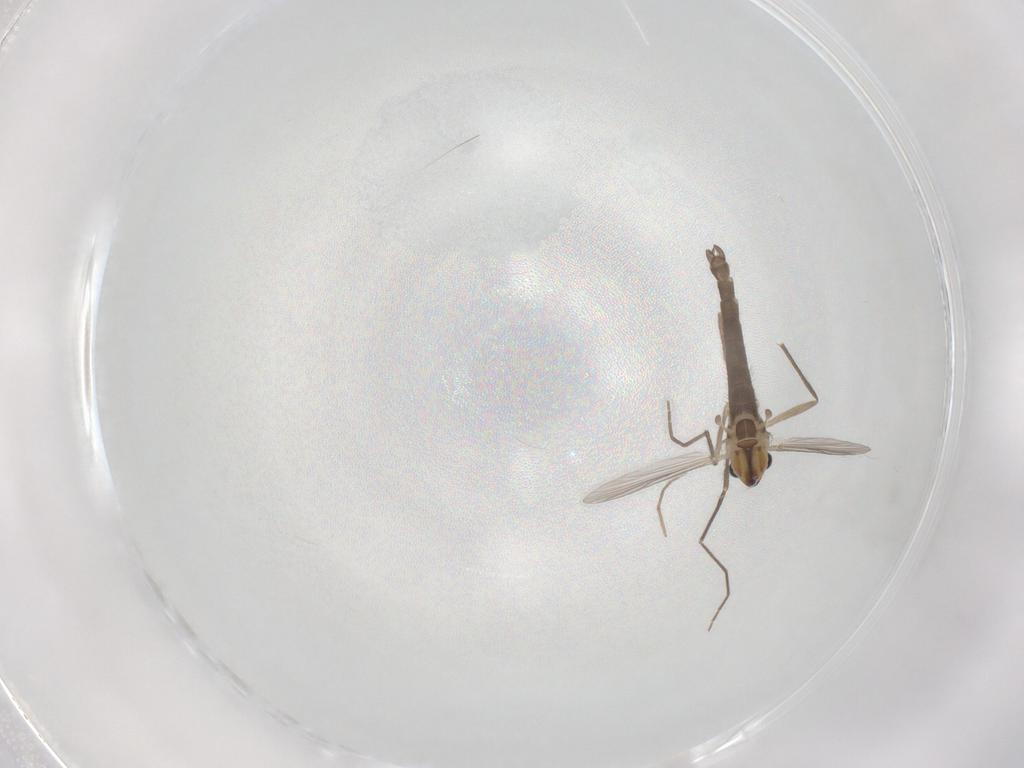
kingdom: Animalia
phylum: Arthropoda
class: Insecta
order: Diptera
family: Chironomidae
